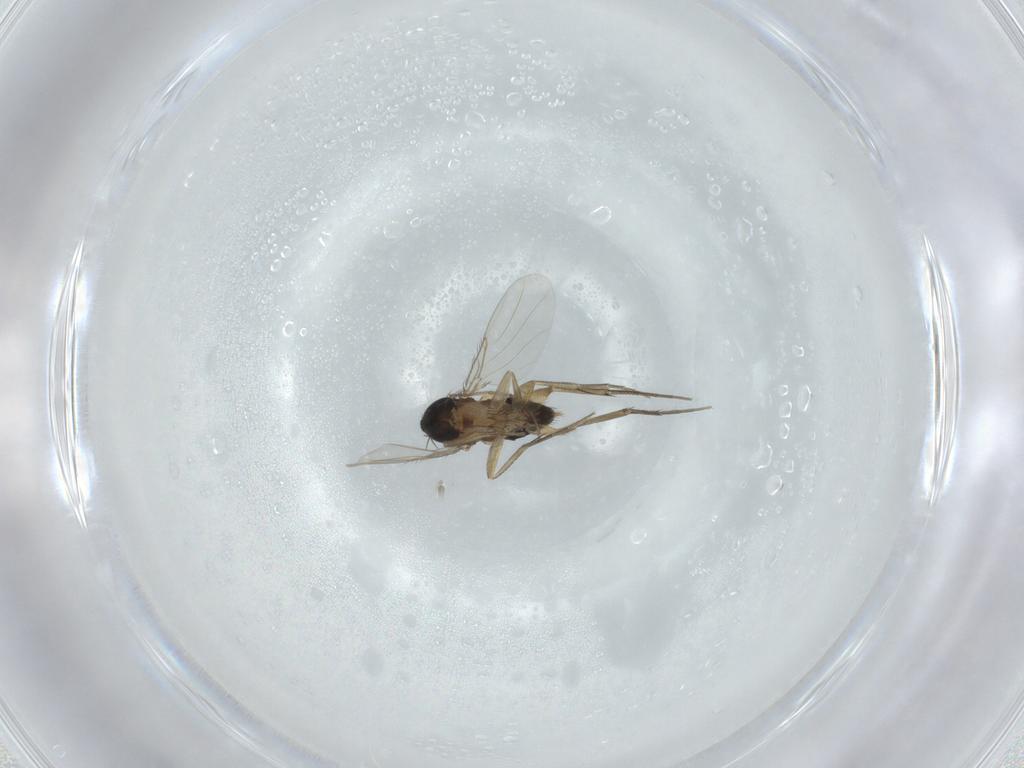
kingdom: Animalia
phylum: Arthropoda
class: Insecta
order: Diptera
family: Phoridae
